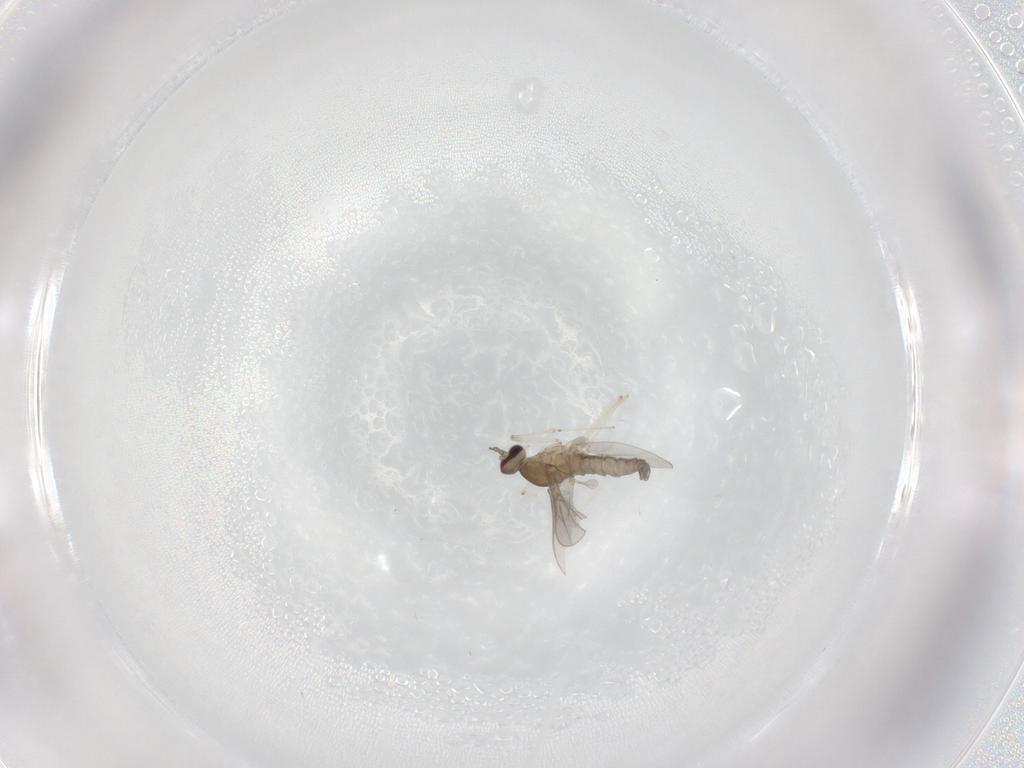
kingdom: Animalia
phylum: Arthropoda
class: Insecta
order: Diptera
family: Cecidomyiidae
